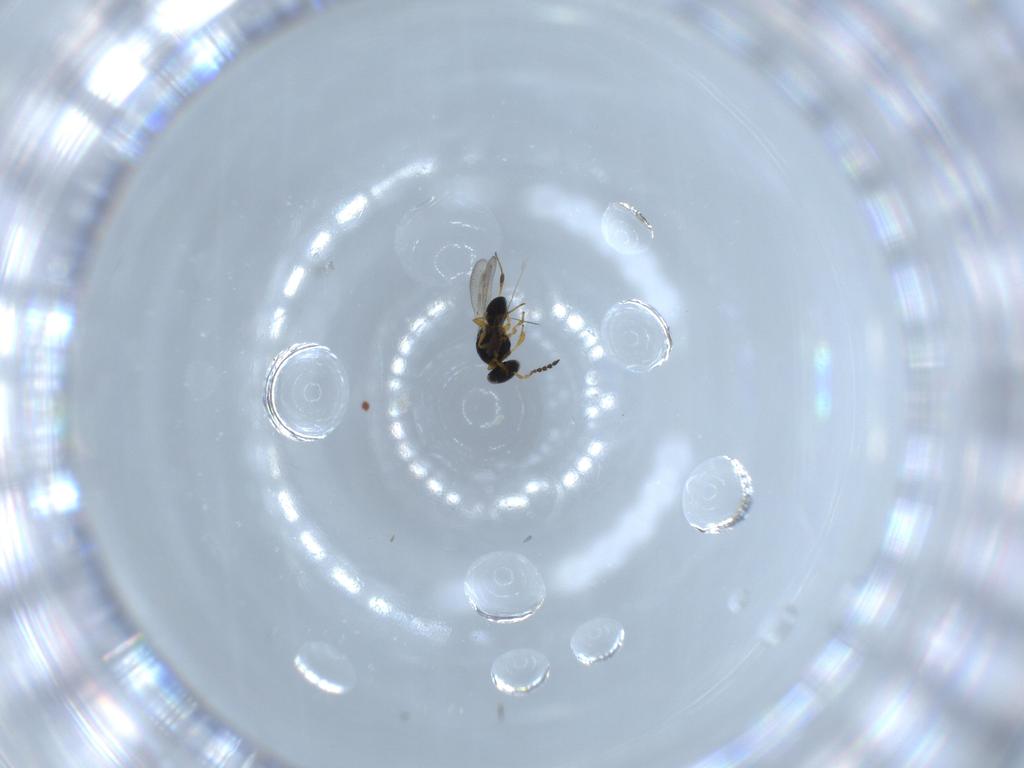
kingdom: Animalia
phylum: Arthropoda
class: Insecta
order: Hymenoptera
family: Platygastridae
